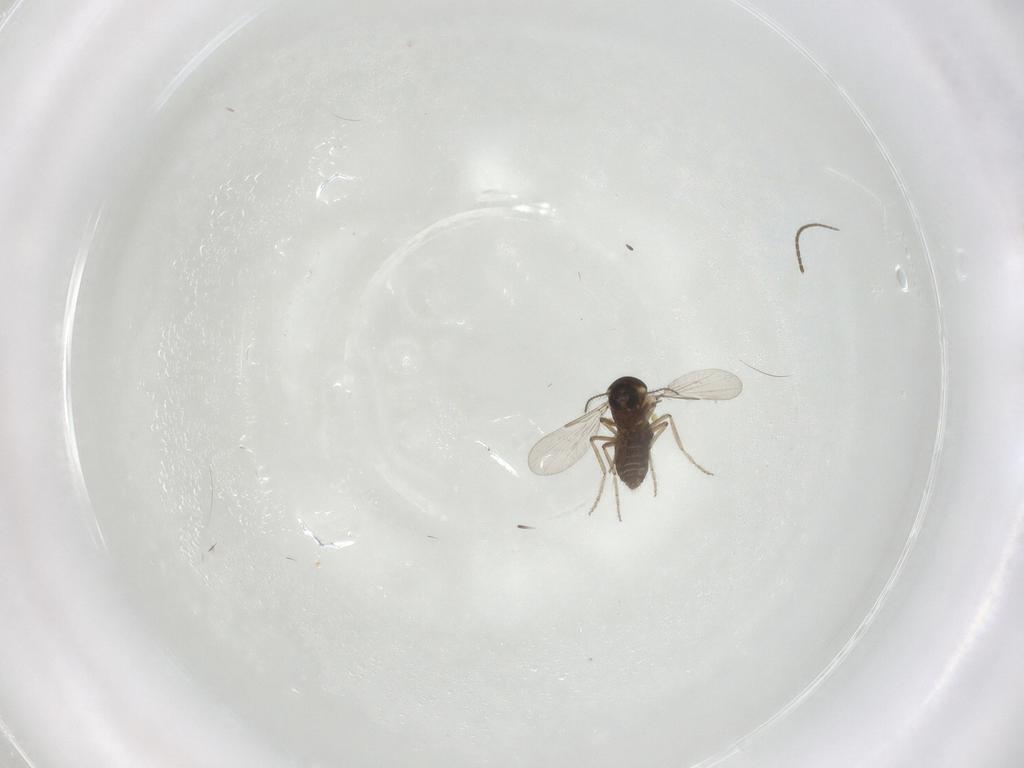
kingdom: Animalia
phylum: Arthropoda
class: Insecta
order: Diptera
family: Ceratopogonidae
